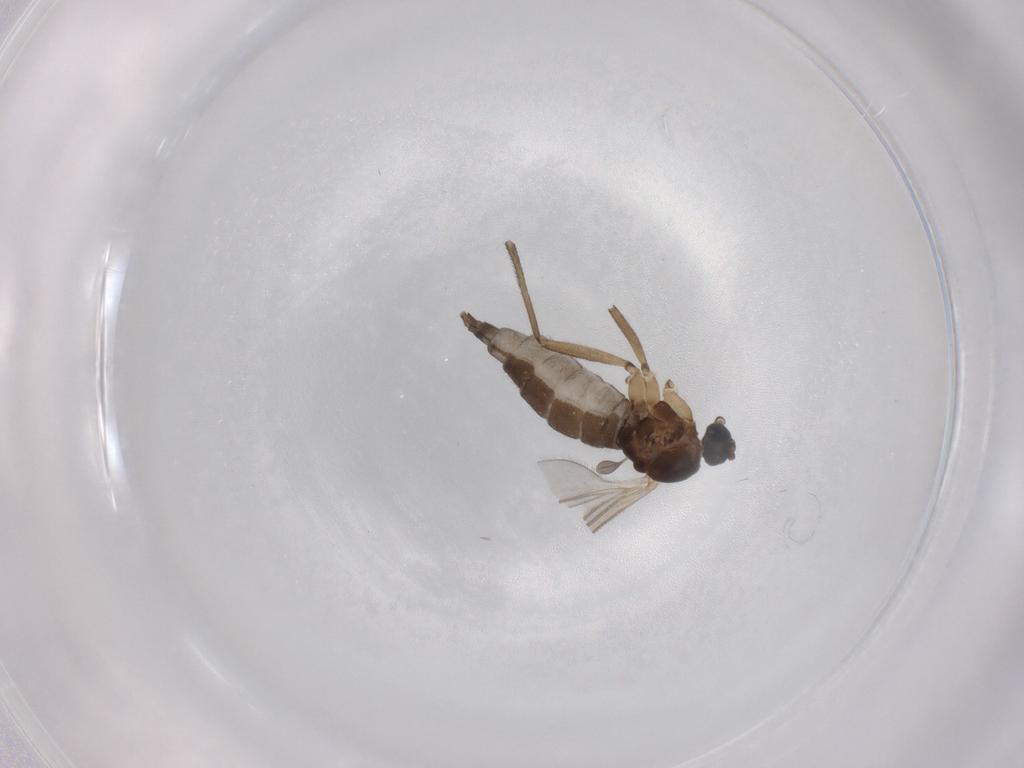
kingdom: Animalia
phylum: Arthropoda
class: Insecta
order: Diptera
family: Sciaridae
